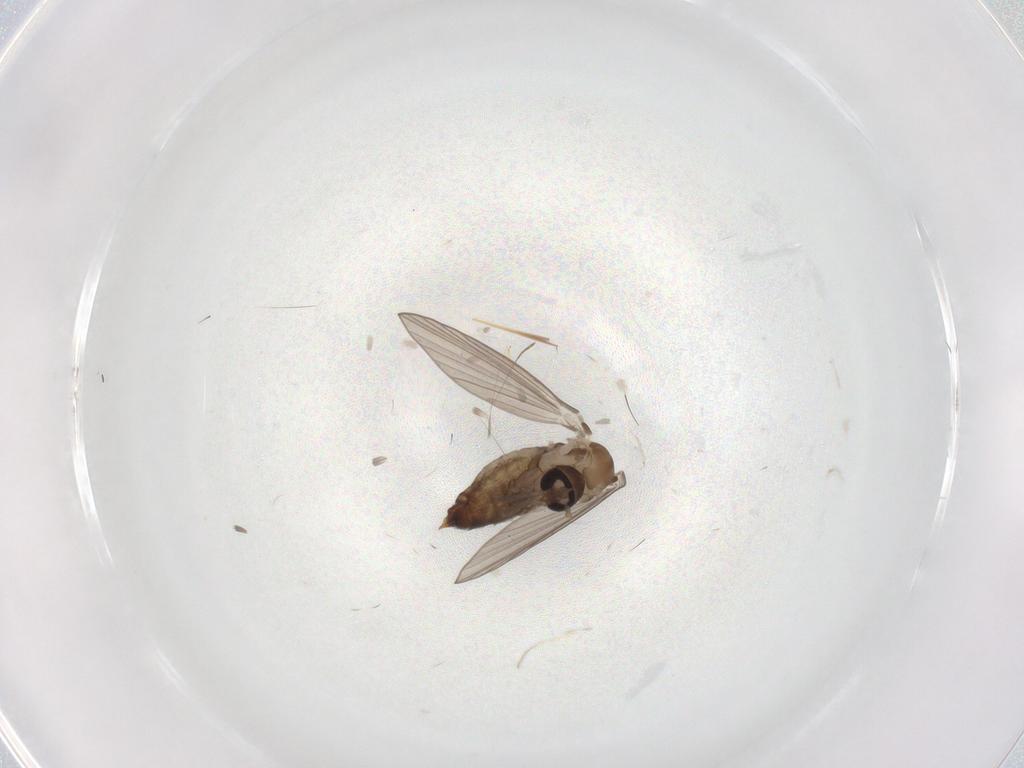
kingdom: Animalia
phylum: Arthropoda
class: Insecta
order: Diptera
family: Psychodidae
